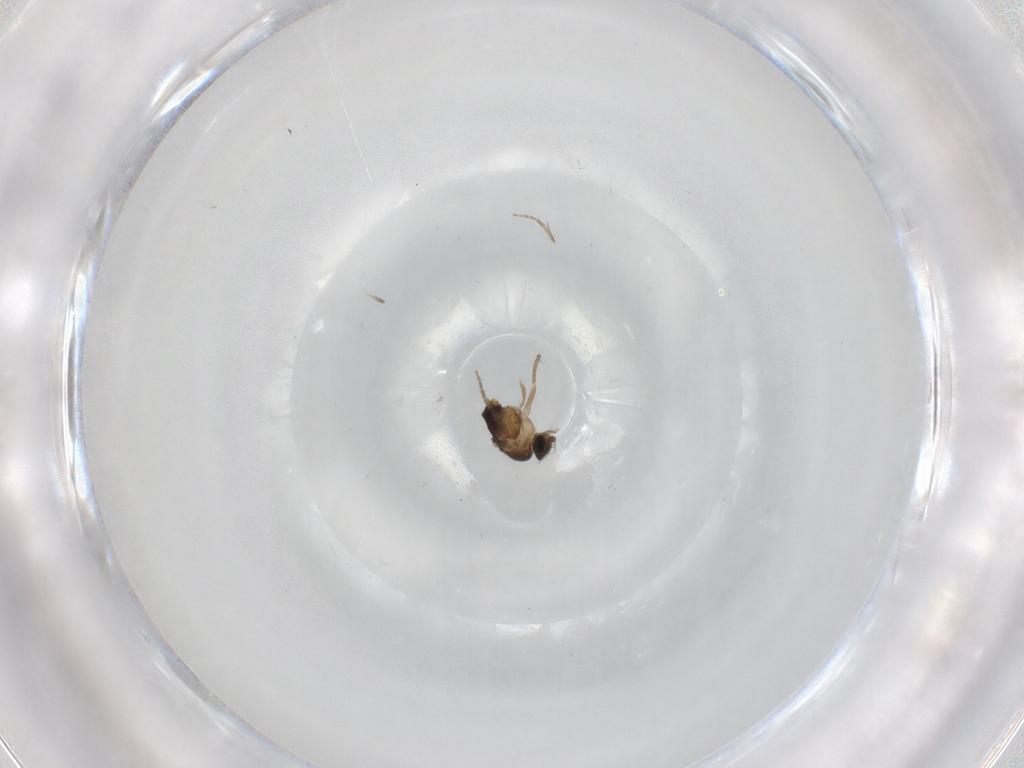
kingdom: Animalia
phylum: Arthropoda
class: Insecta
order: Diptera
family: Phoridae
